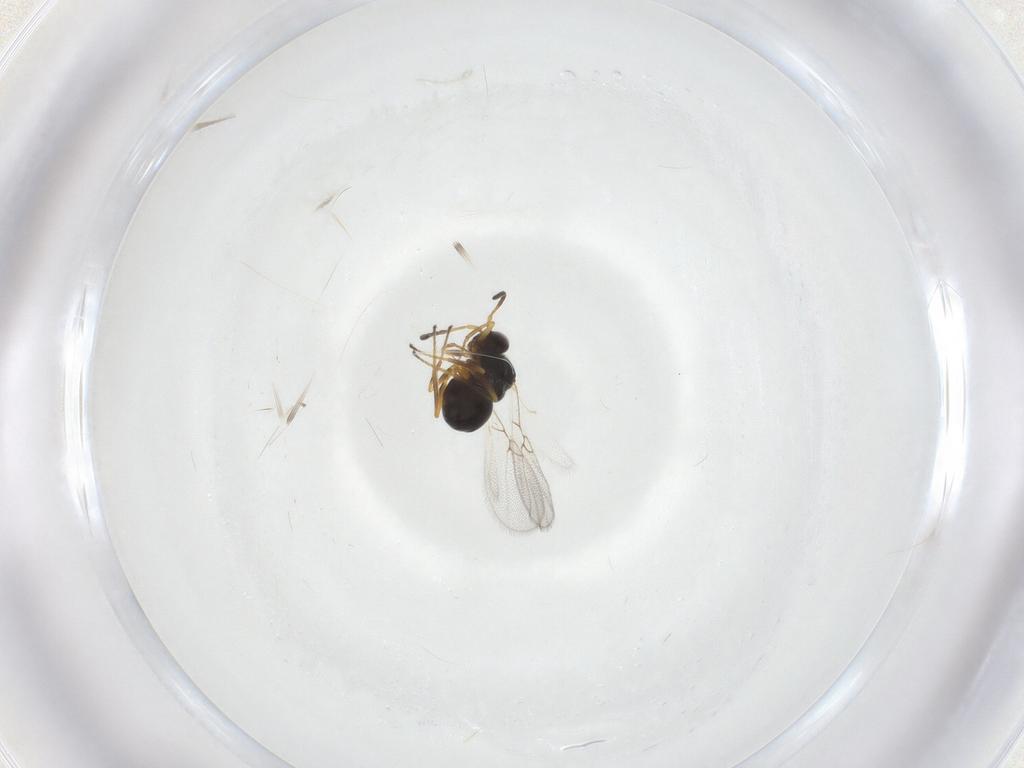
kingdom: Animalia
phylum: Arthropoda
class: Insecta
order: Hymenoptera
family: Figitidae
